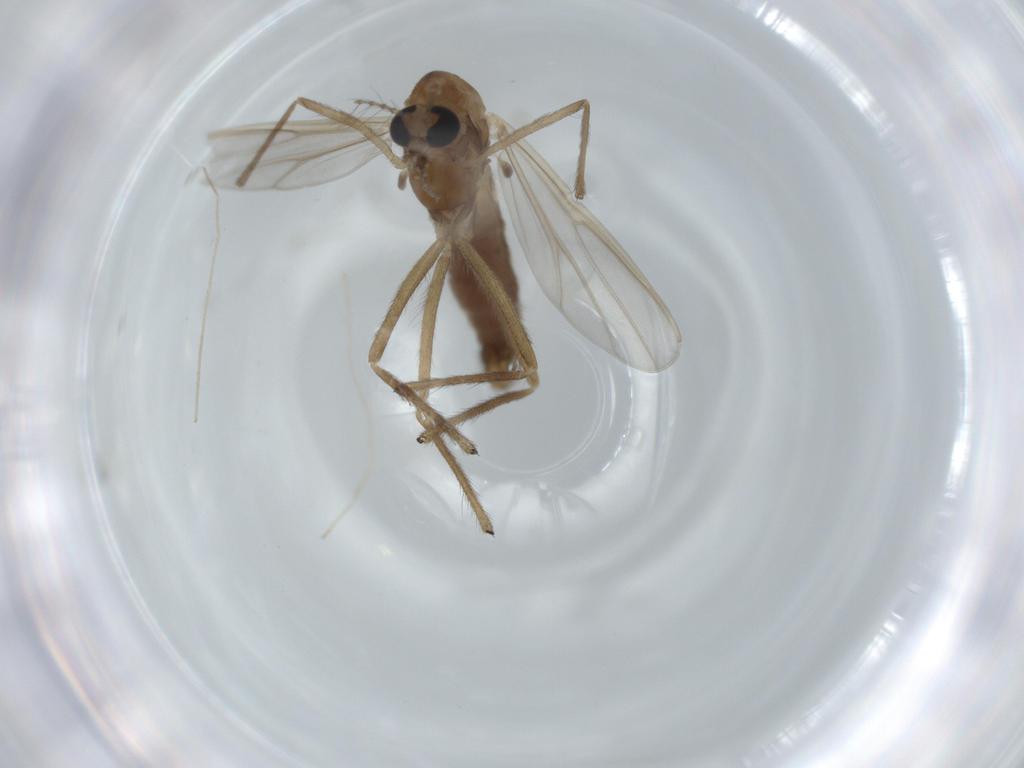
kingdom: Animalia
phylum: Arthropoda
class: Insecta
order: Diptera
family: Chironomidae
